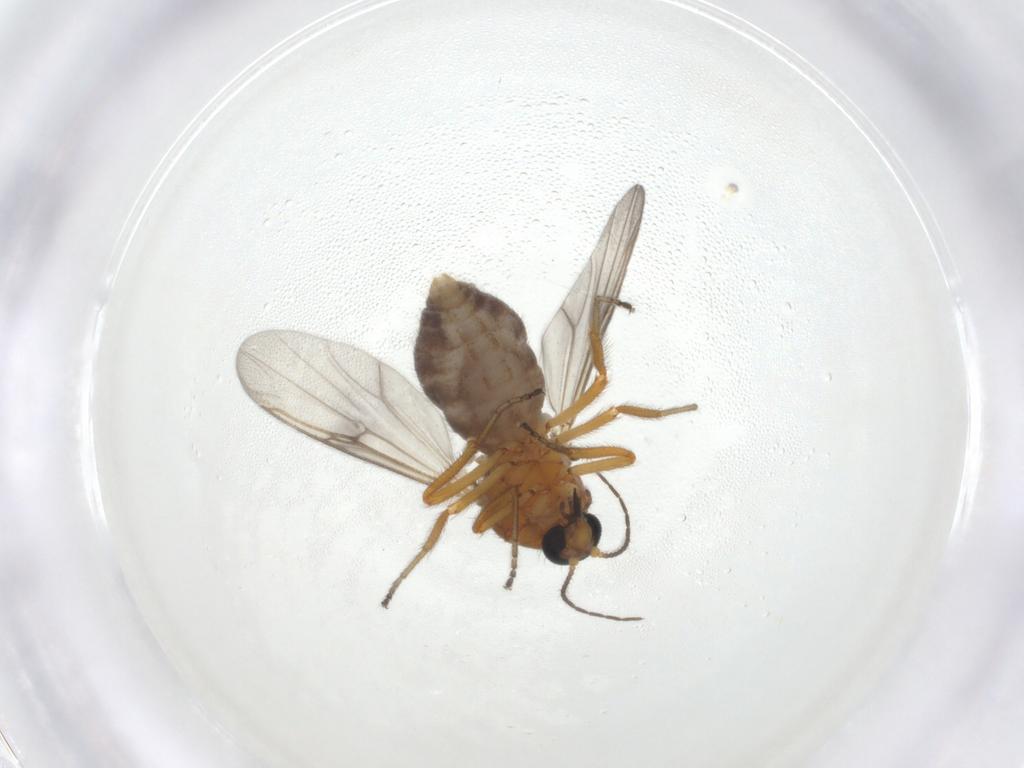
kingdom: Animalia
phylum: Arthropoda
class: Insecta
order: Diptera
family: Ceratopogonidae
